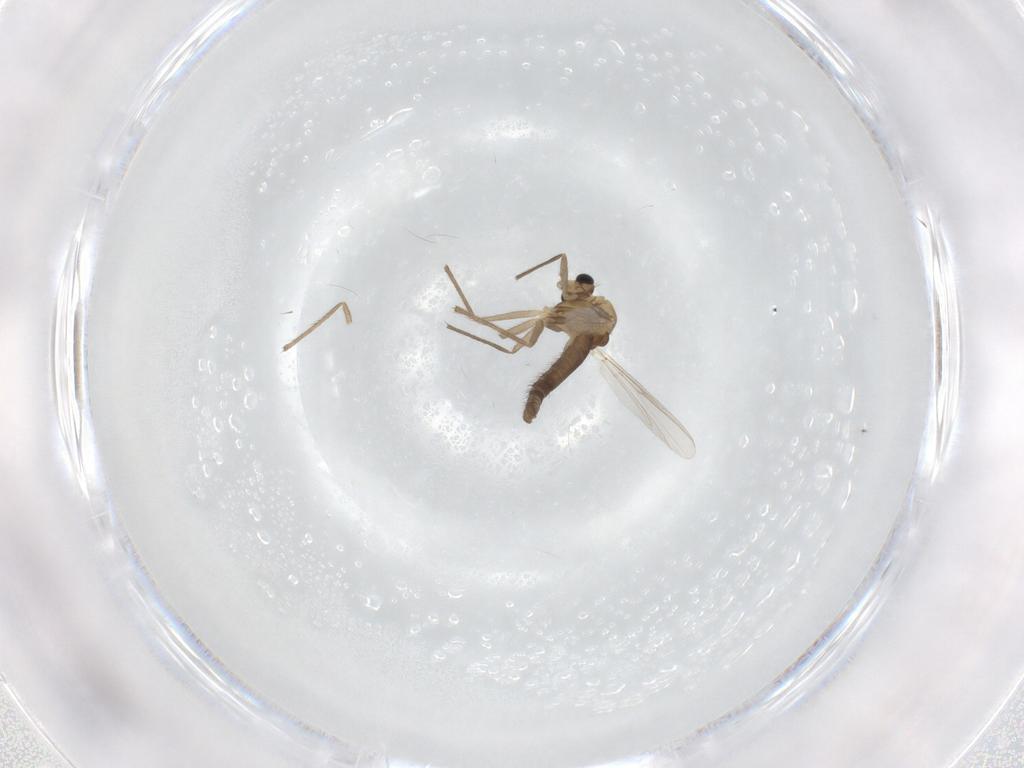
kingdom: Animalia
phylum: Arthropoda
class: Insecta
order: Diptera
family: Chironomidae
